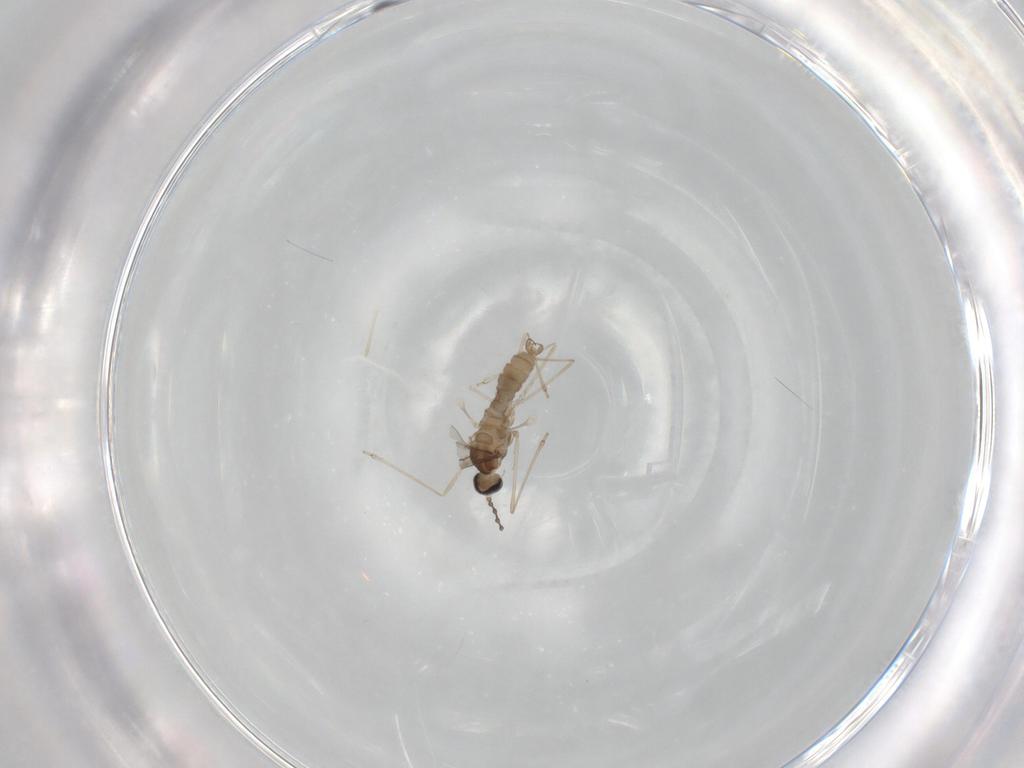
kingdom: Animalia
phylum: Arthropoda
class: Insecta
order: Diptera
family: Cecidomyiidae
